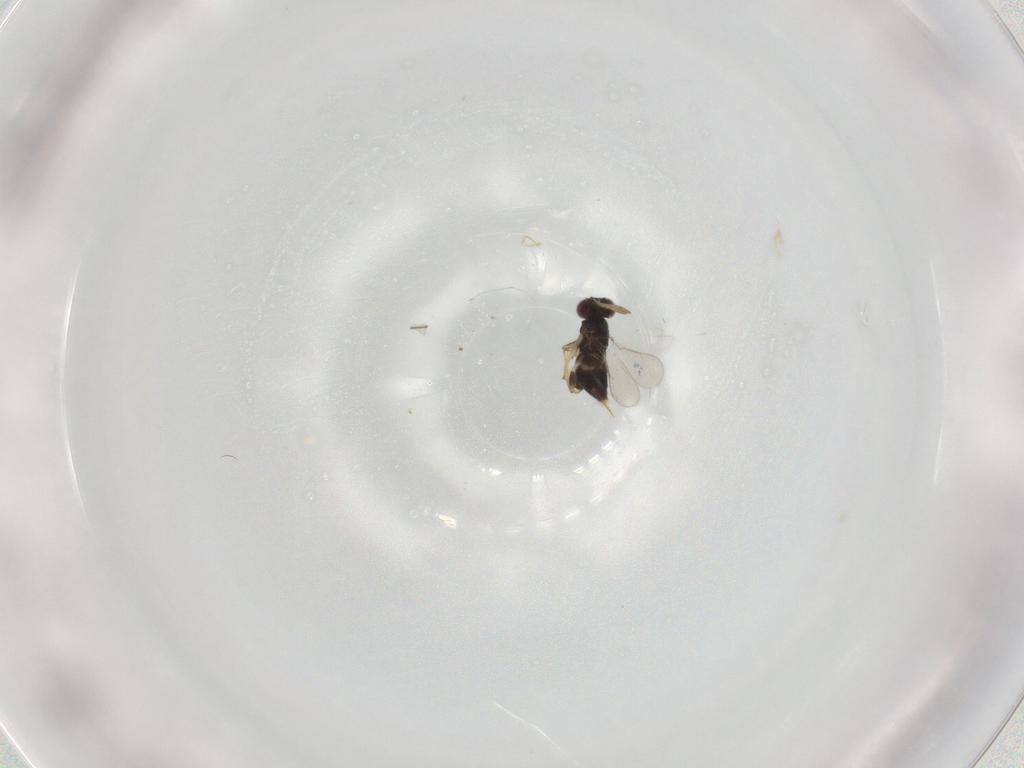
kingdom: Animalia
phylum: Arthropoda
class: Insecta
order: Hymenoptera
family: Aphelinidae
